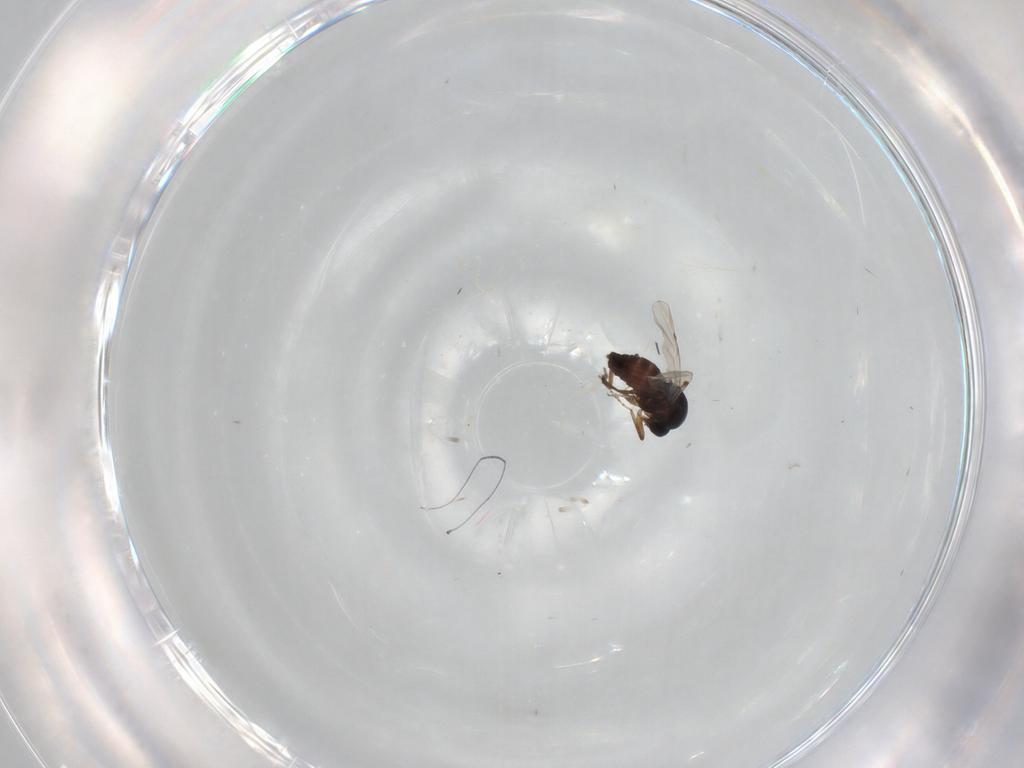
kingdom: Animalia
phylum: Arthropoda
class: Insecta
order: Diptera
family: Ceratopogonidae
